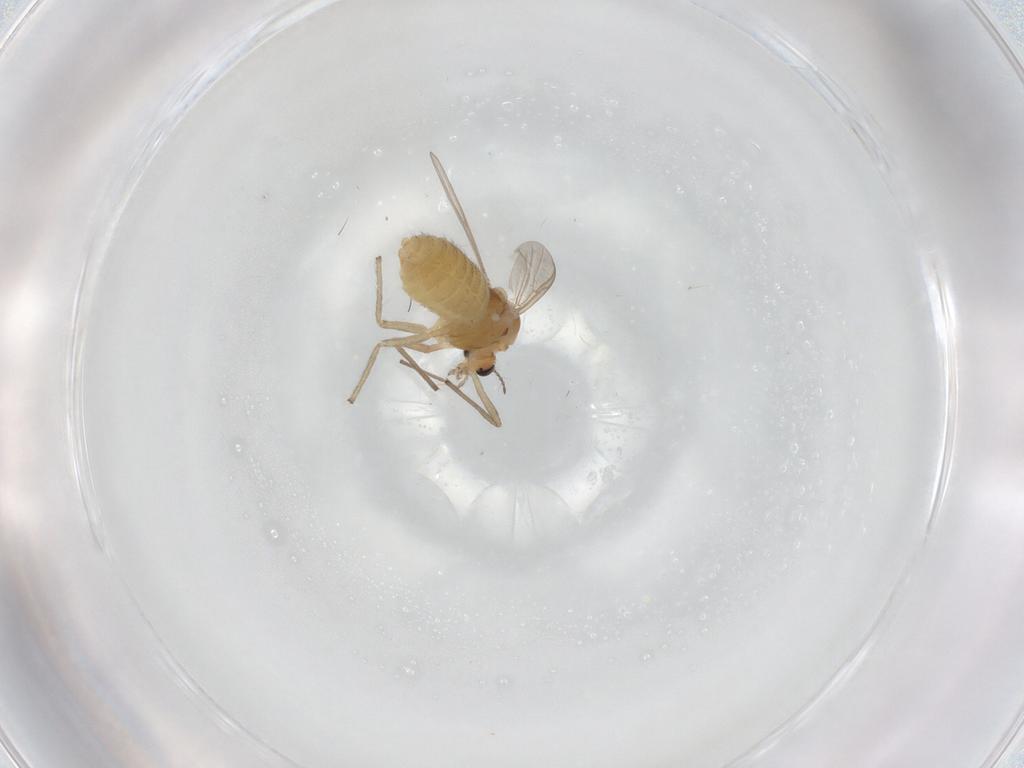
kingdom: Animalia
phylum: Arthropoda
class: Insecta
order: Diptera
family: Chironomidae
